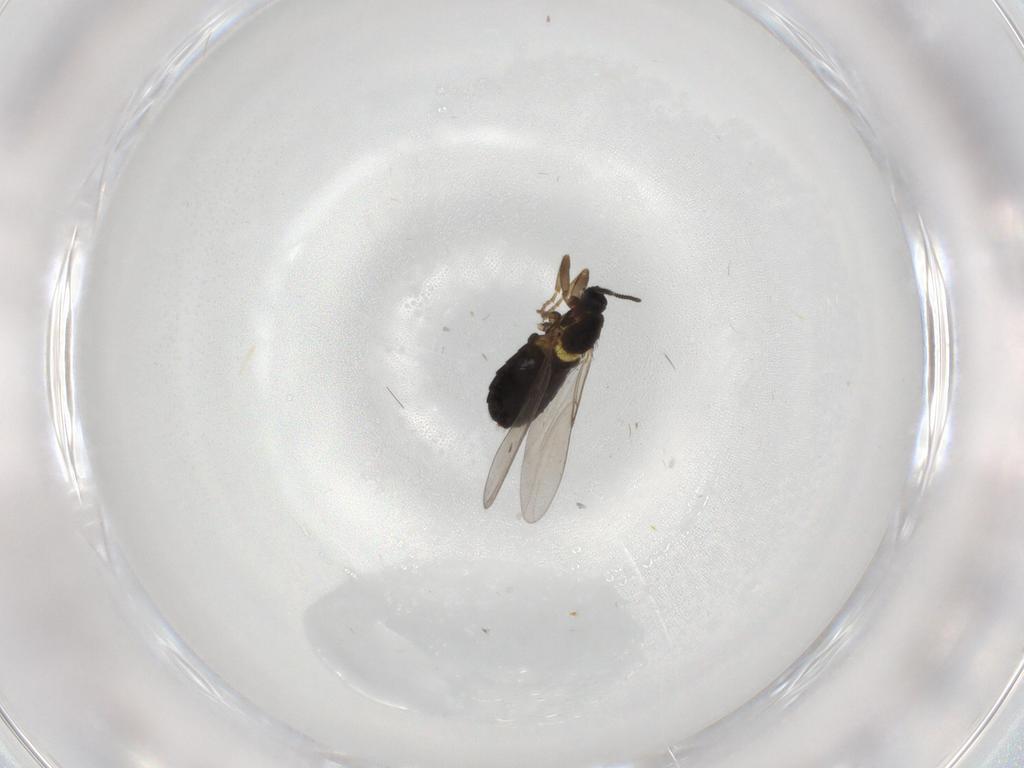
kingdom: Animalia
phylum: Arthropoda
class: Insecta
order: Diptera
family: Scatopsidae
